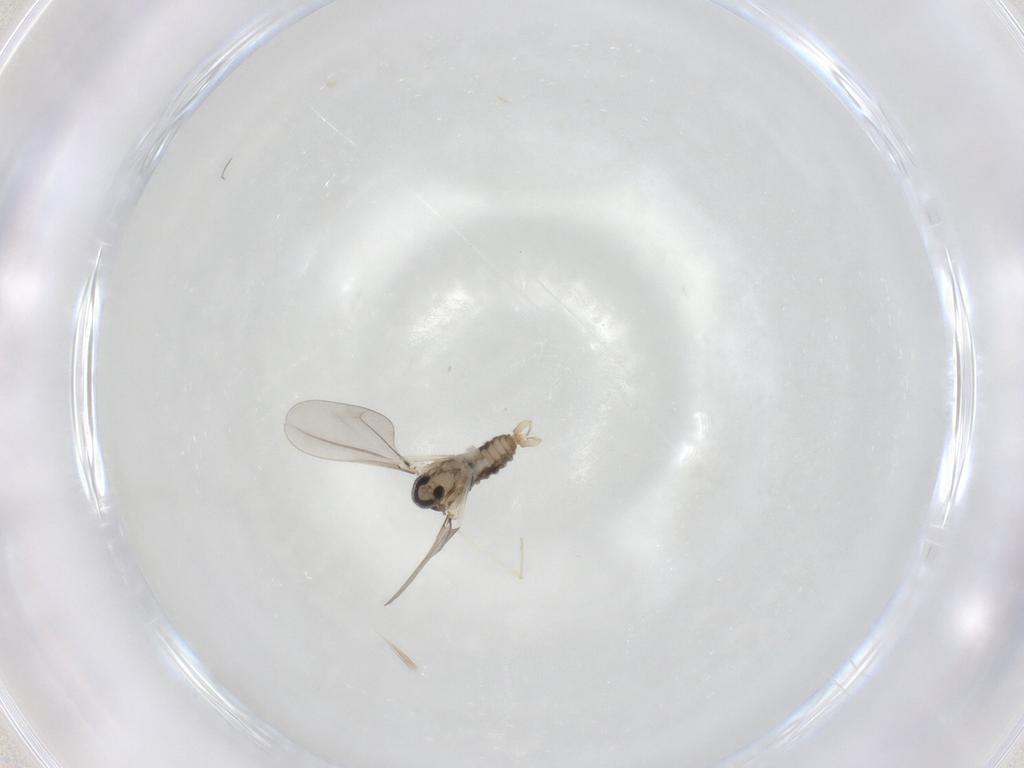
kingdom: Animalia
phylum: Arthropoda
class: Insecta
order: Diptera
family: Cecidomyiidae
